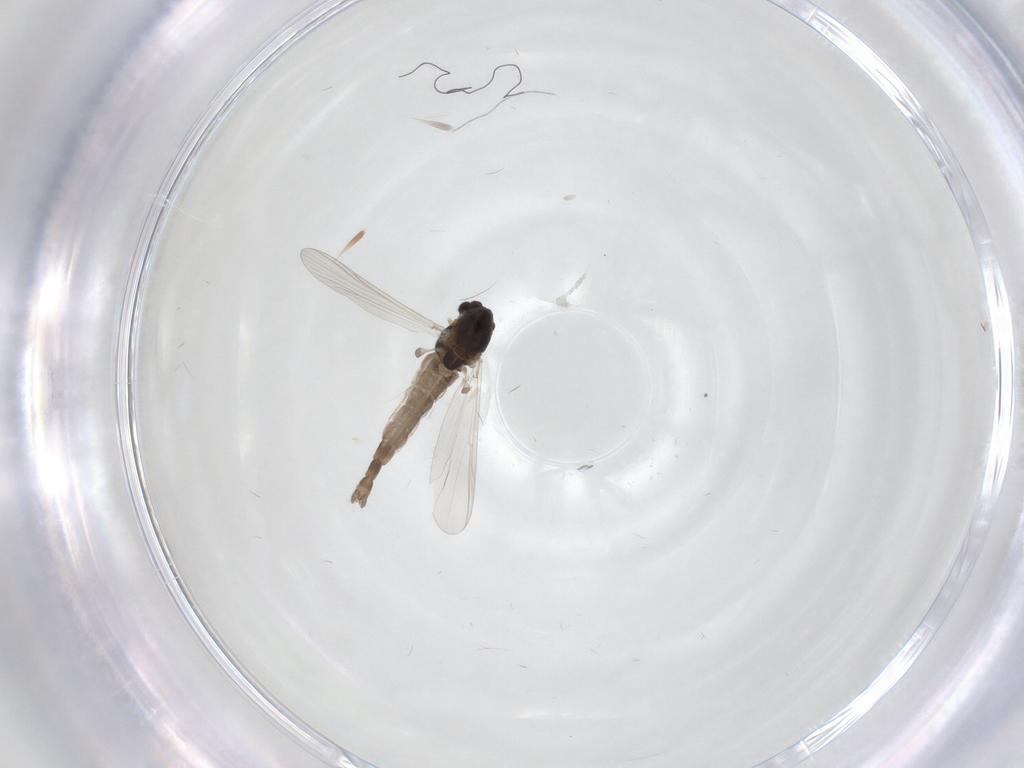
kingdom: Animalia
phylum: Arthropoda
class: Insecta
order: Diptera
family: Chironomidae
